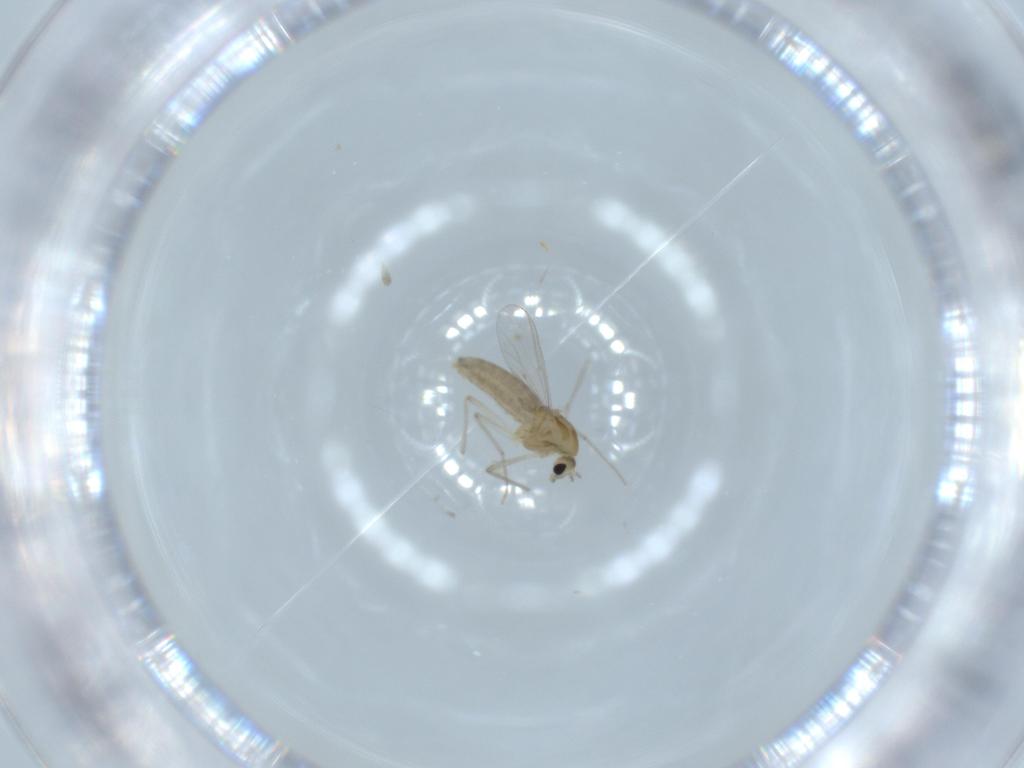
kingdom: Animalia
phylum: Arthropoda
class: Insecta
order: Diptera
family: Chironomidae
